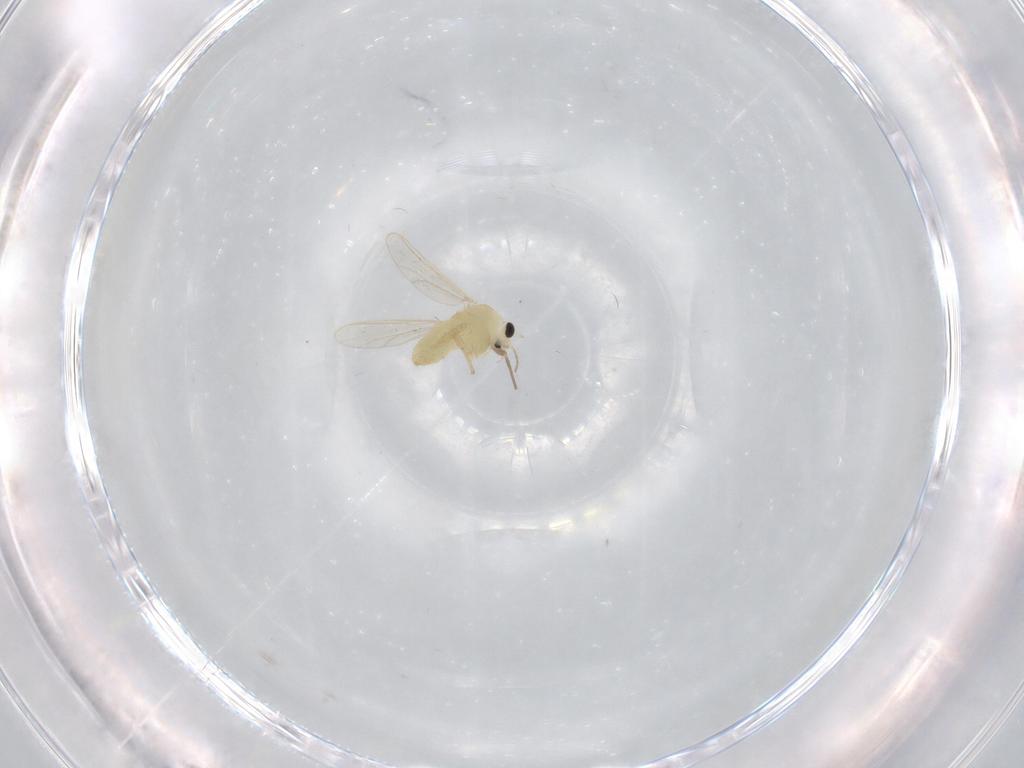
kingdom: Animalia
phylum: Arthropoda
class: Insecta
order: Diptera
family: Chironomidae
